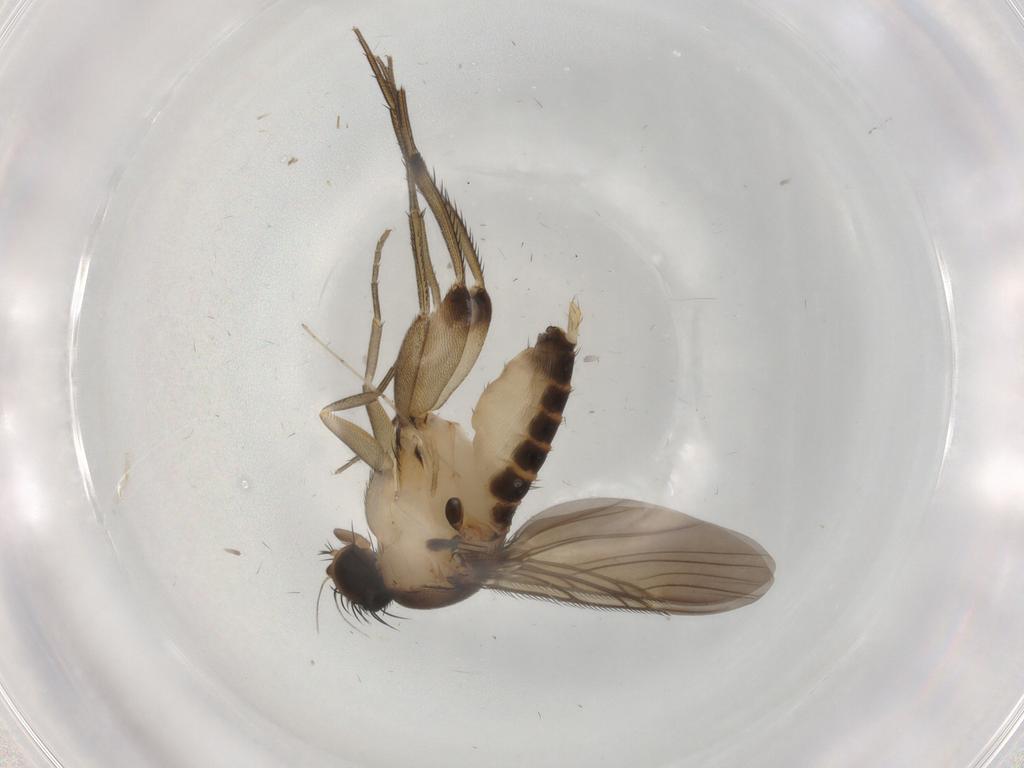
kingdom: Animalia
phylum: Arthropoda
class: Insecta
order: Diptera
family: Phoridae
